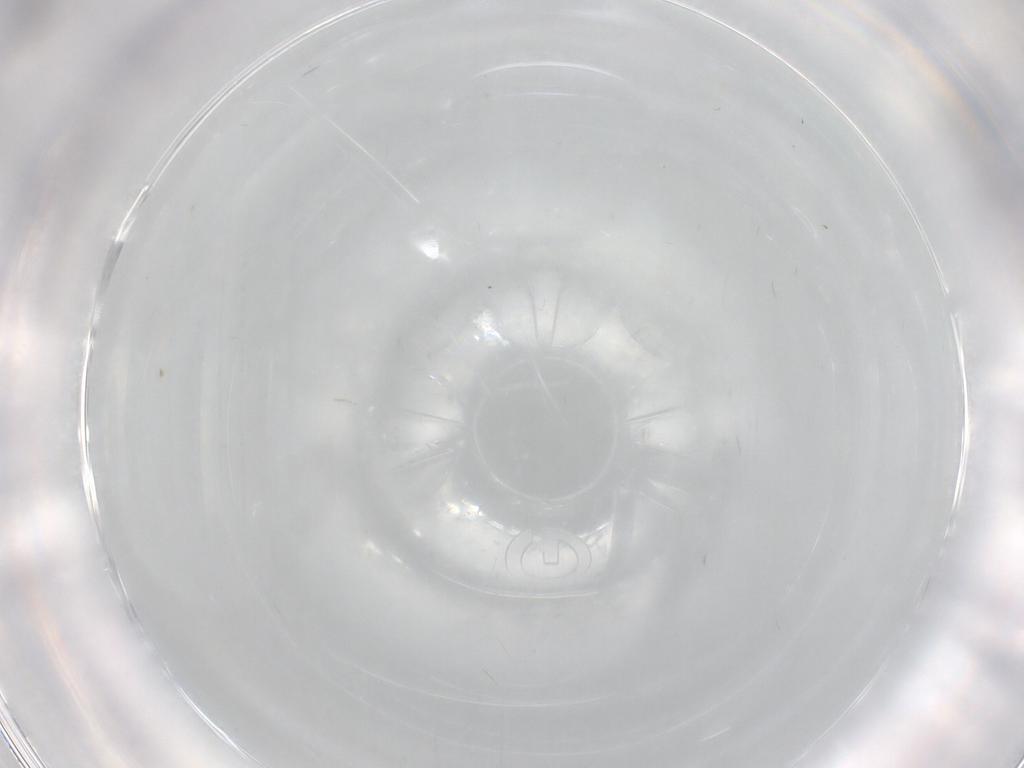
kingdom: Animalia
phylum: Arthropoda
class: Insecta
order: Diptera
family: Psychodidae
